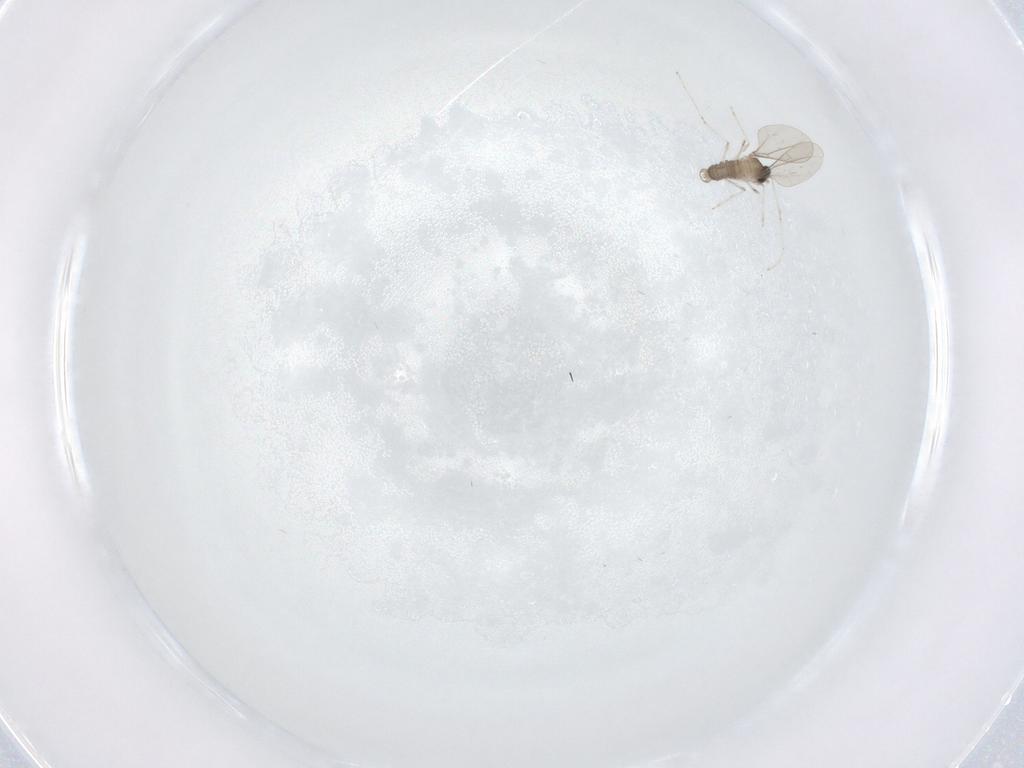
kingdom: Animalia
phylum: Arthropoda
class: Insecta
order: Diptera
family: Cecidomyiidae
